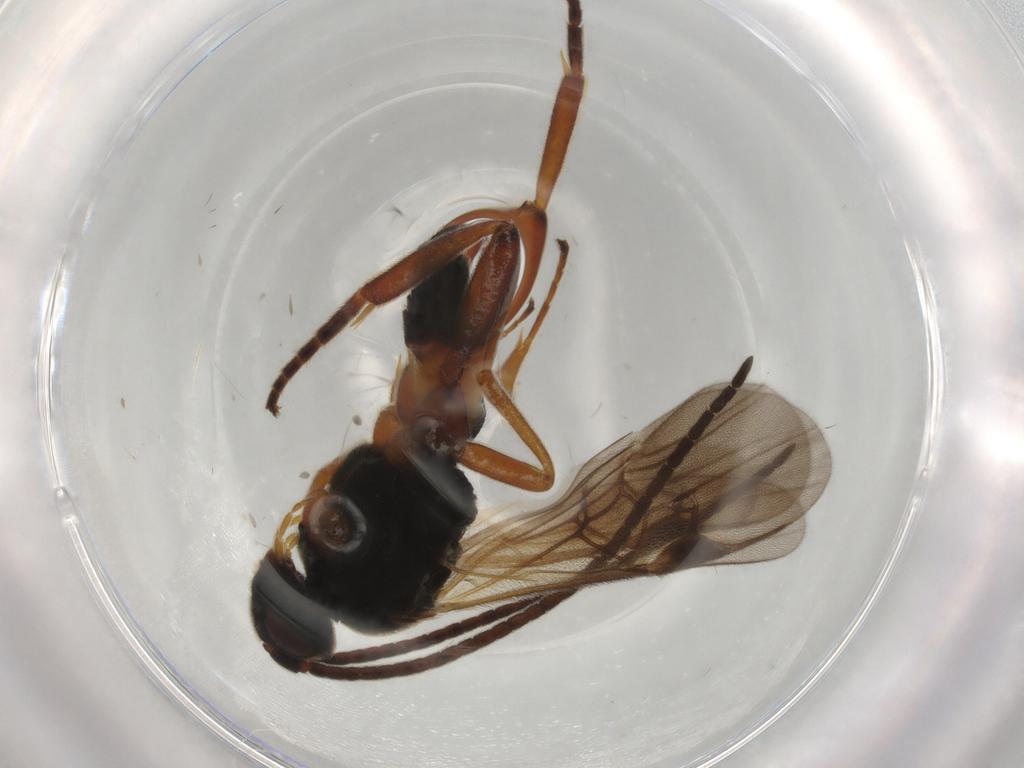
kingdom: Animalia
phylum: Arthropoda
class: Insecta
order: Hymenoptera
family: Braconidae
